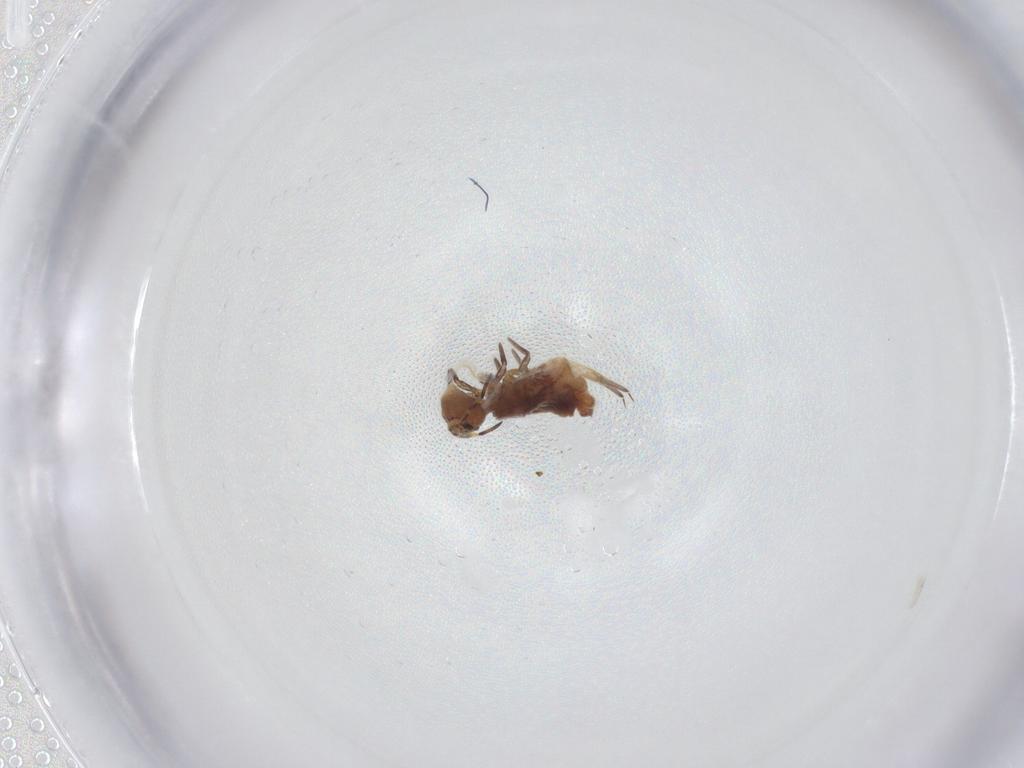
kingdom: Animalia
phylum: Arthropoda
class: Collembola
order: Symphypleona
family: Sminthuridae
